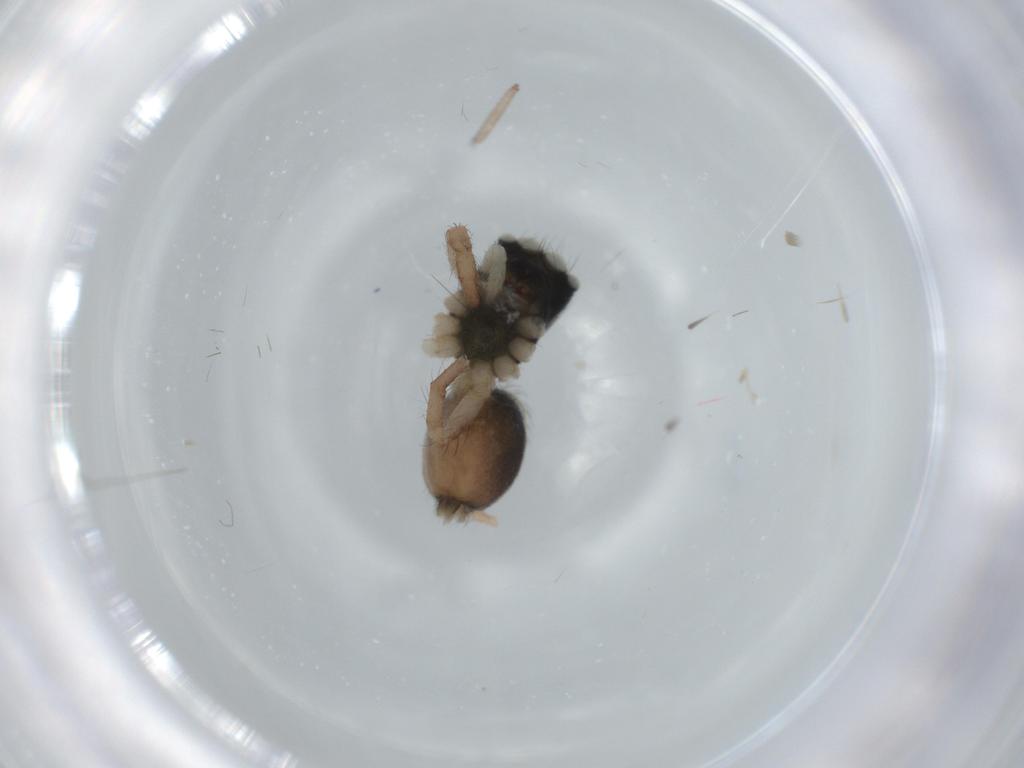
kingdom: Animalia
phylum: Arthropoda
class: Arachnida
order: Araneae
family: Salticidae
